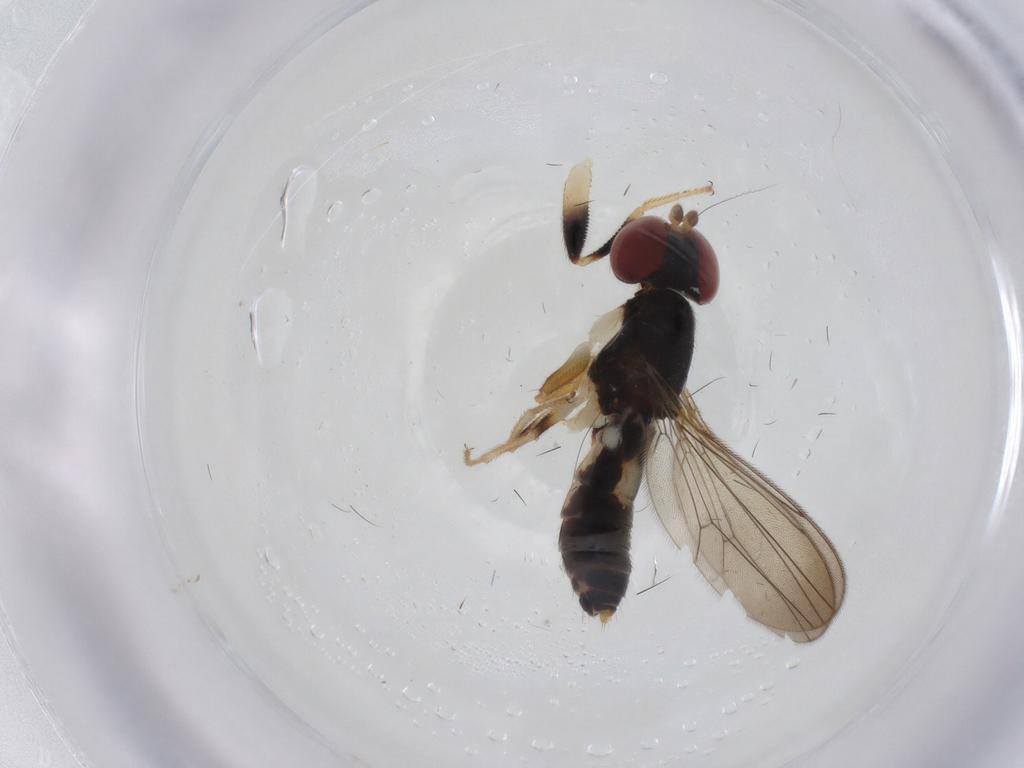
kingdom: Animalia
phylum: Arthropoda
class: Insecta
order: Diptera
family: Aulacigastridae
